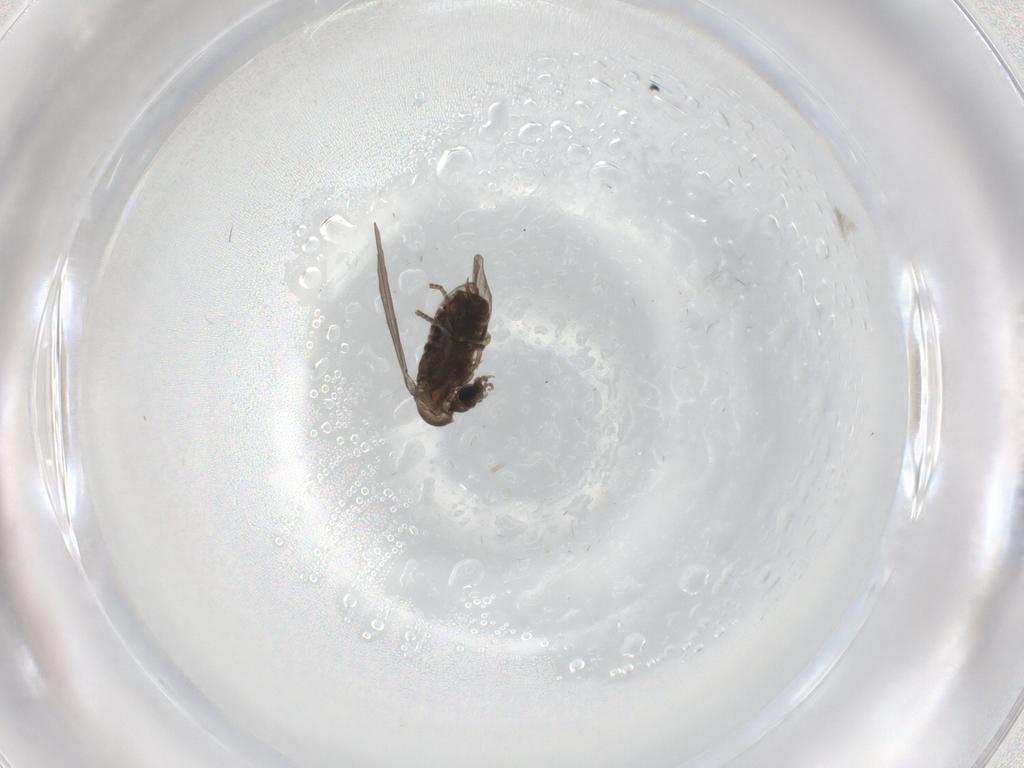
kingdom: Animalia
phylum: Arthropoda
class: Insecta
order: Diptera
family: Psychodidae
